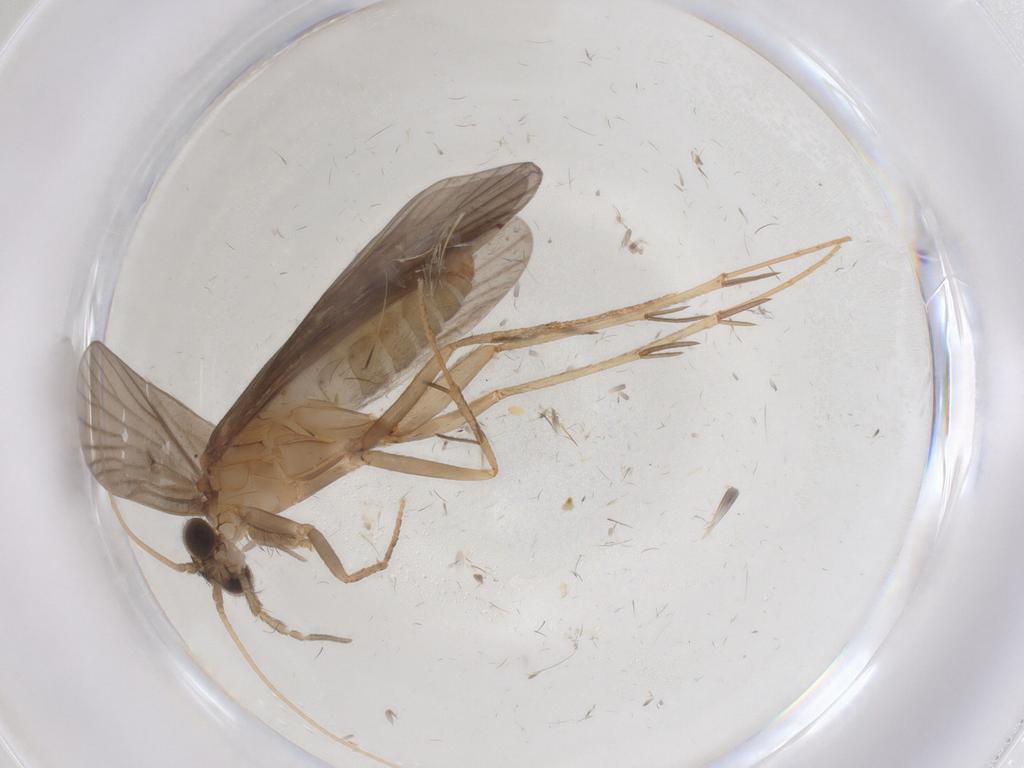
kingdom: Animalia
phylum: Arthropoda
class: Insecta
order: Trichoptera
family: Philopotamidae
